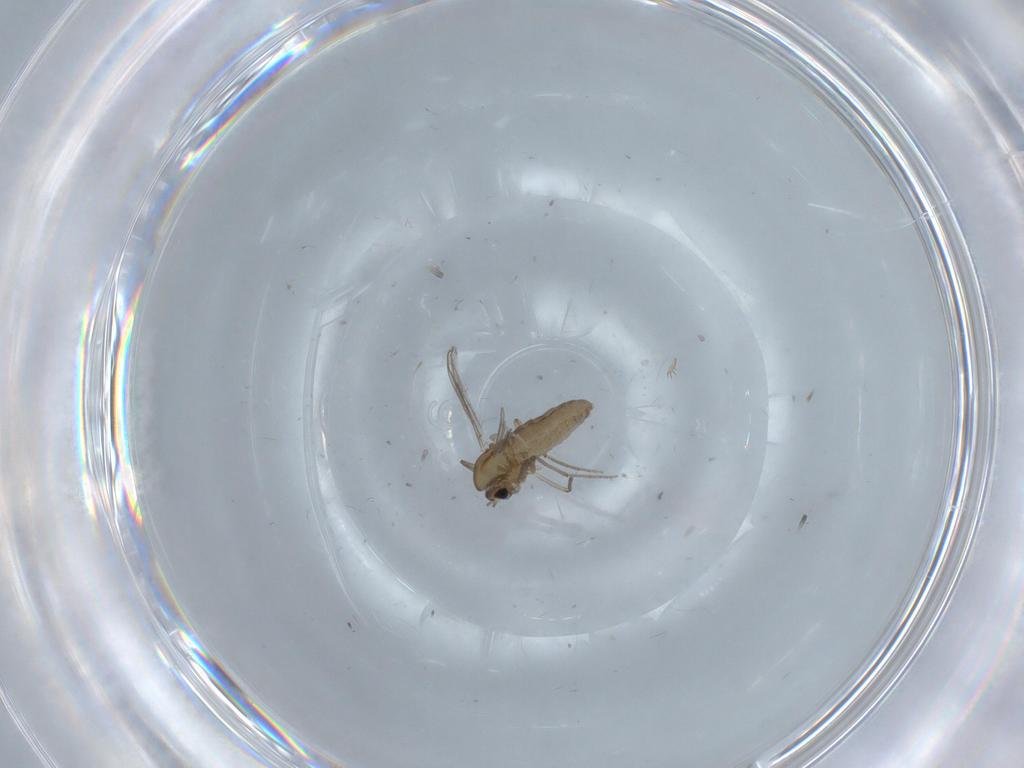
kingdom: Animalia
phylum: Arthropoda
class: Insecta
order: Diptera
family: Chironomidae
